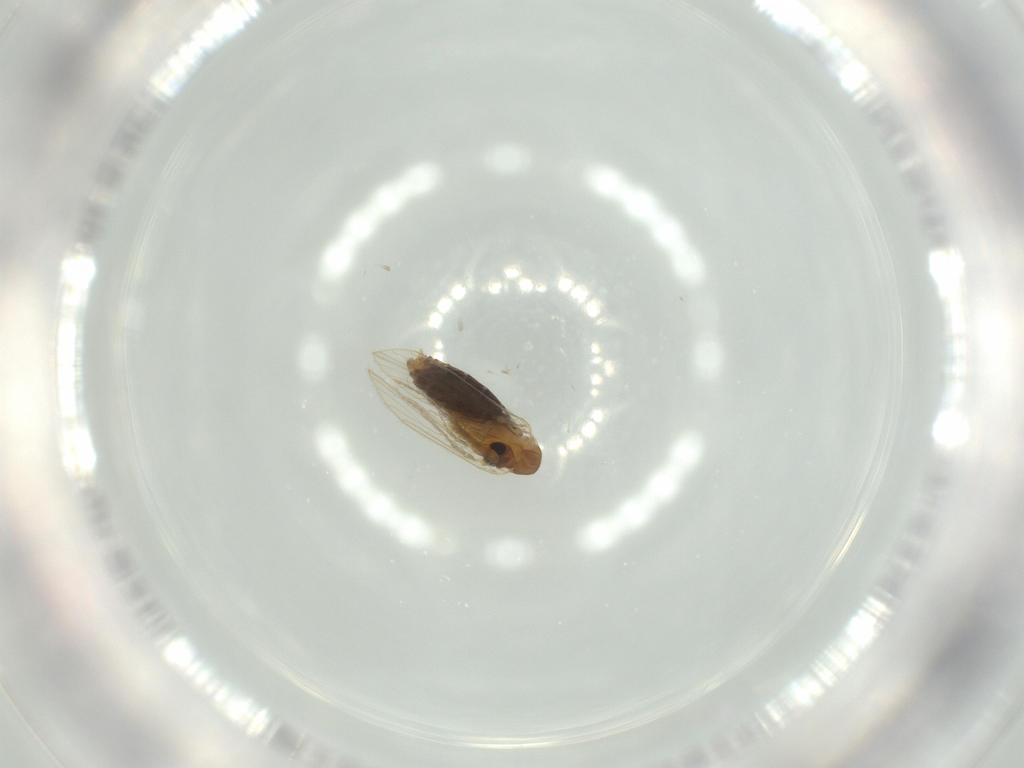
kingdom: Animalia
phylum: Arthropoda
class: Insecta
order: Diptera
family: Psychodidae
